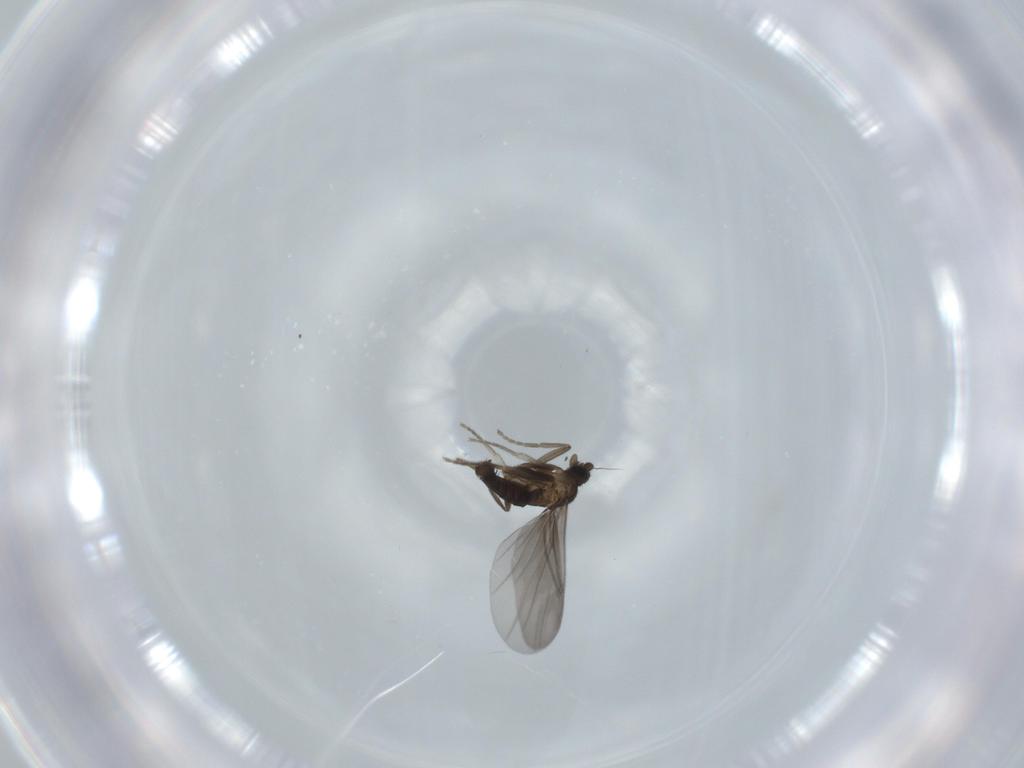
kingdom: Animalia
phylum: Arthropoda
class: Insecta
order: Diptera
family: Phoridae
